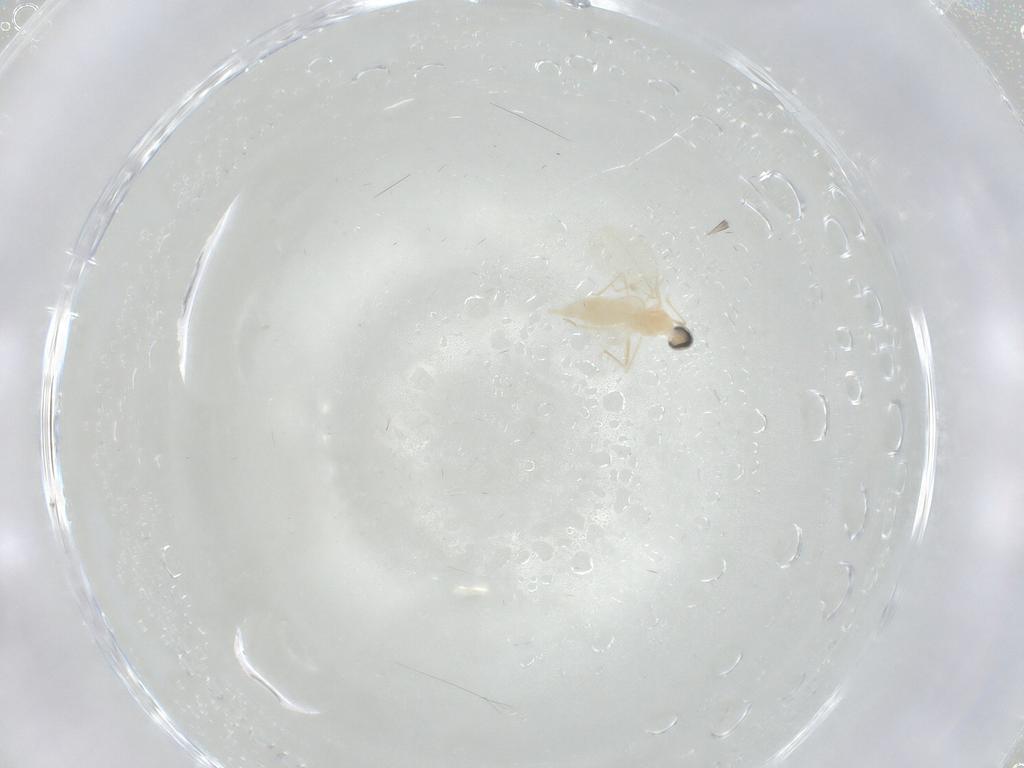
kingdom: Animalia
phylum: Arthropoda
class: Insecta
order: Diptera
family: Cecidomyiidae
